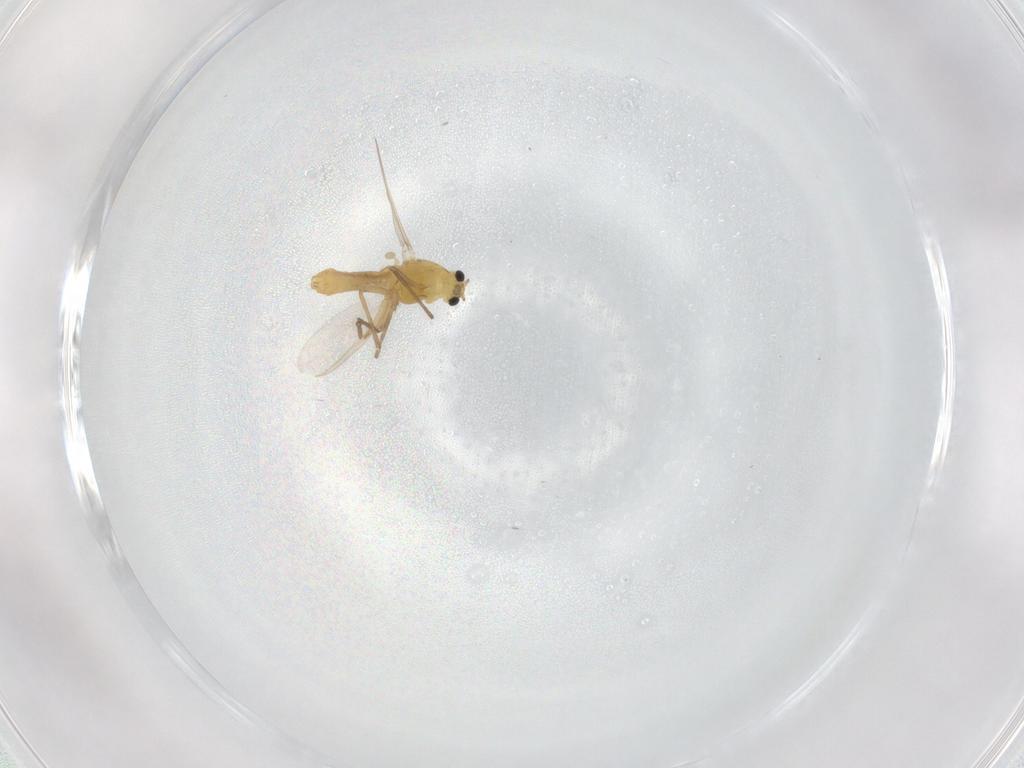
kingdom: Animalia
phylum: Arthropoda
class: Insecta
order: Diptera
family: Chironomidae
